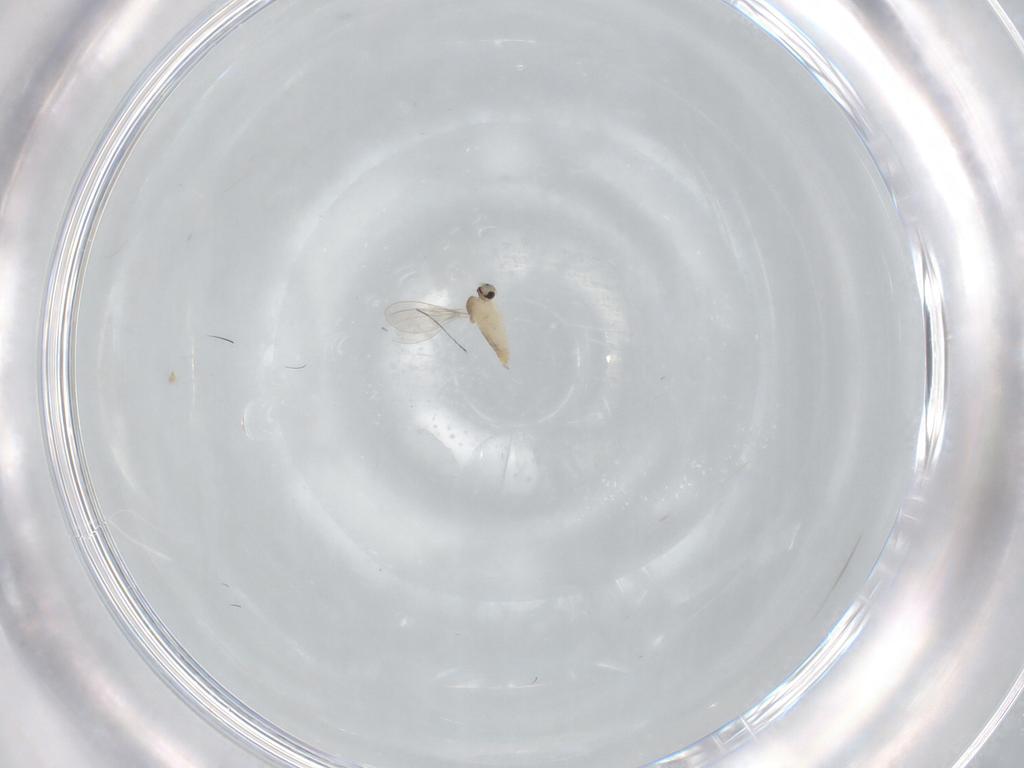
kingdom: Animalia
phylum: Arthropoda
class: Insecta
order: Diptera
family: Cecidomyiidae
